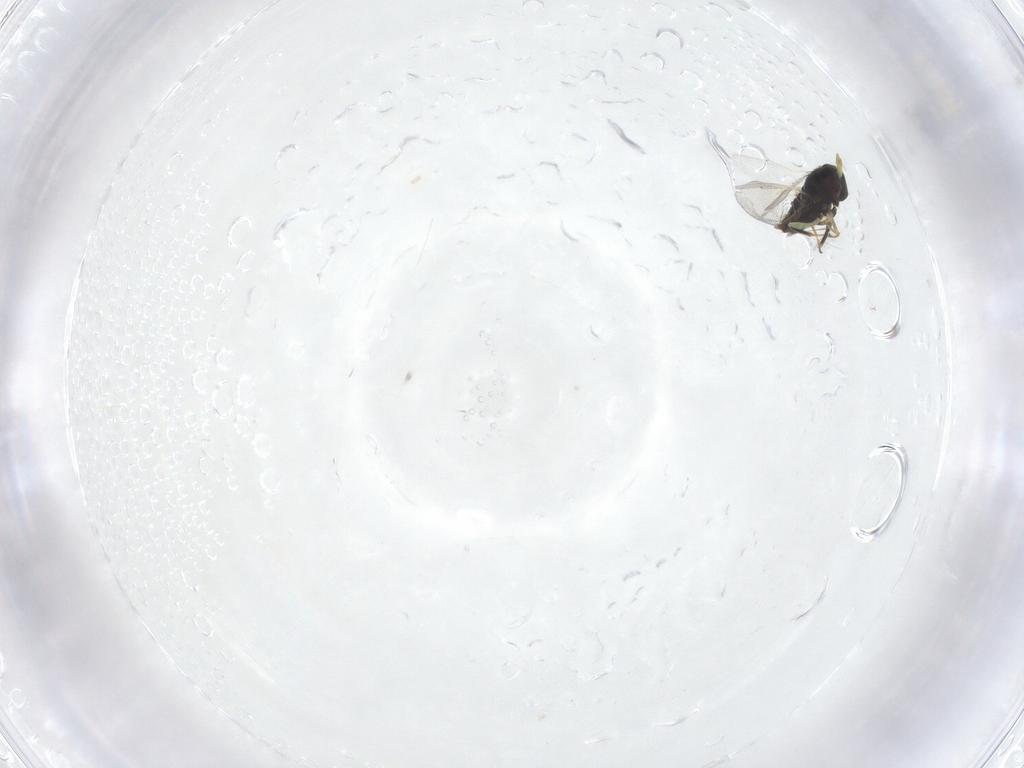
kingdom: Animalia
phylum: Arthropoda
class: Insecta
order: Hymenoptera
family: Aphelinidae
